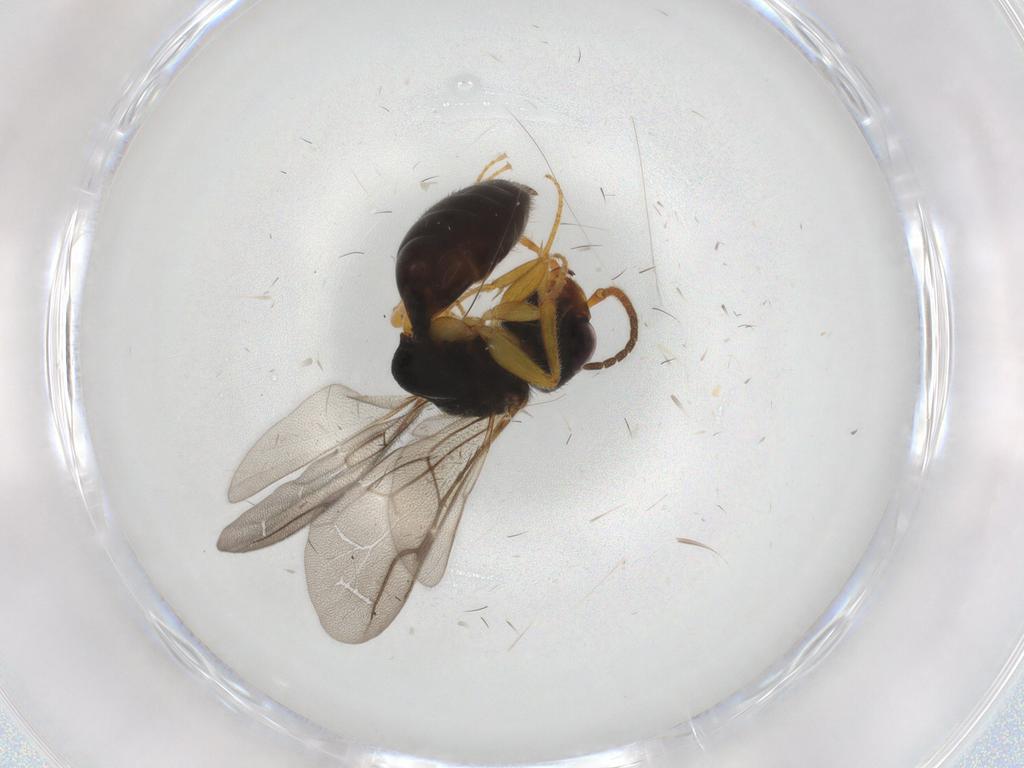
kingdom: Animalia
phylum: Arthropoda
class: Insecta
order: Hymenoptera
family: Bethylidae
